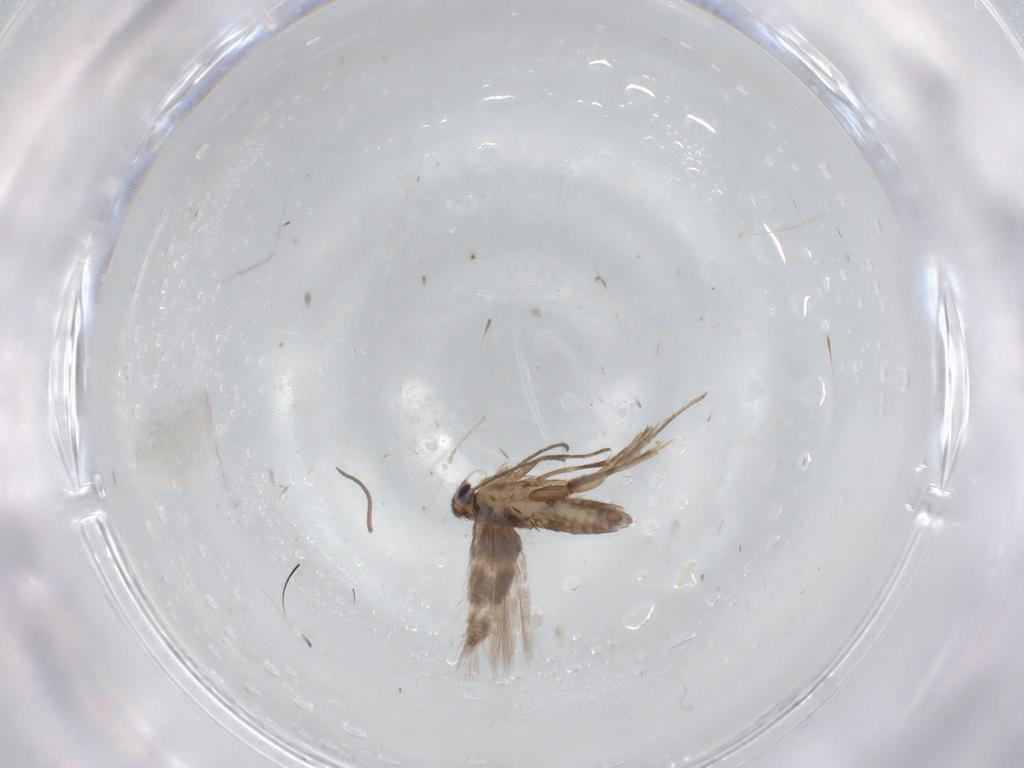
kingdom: Animalia
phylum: Arthropoda
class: Insecta
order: Lepidoptera
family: Nymphalidae
